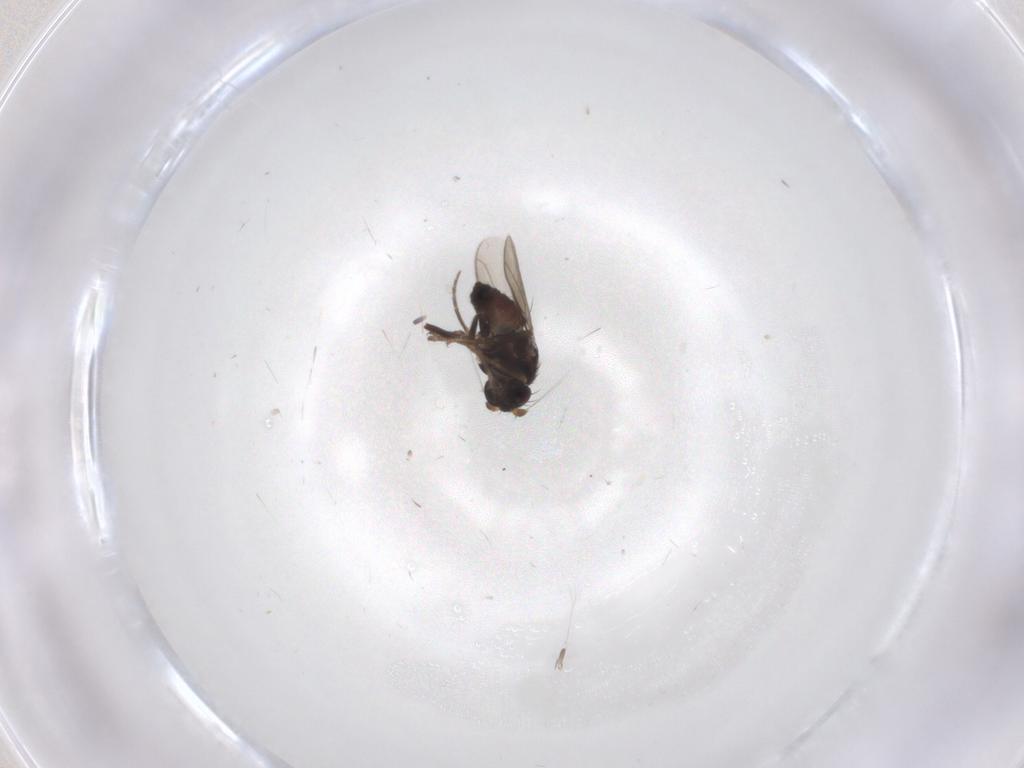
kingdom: Animalia
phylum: Arthropoda
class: Insecta
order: Diptera
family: Sphaeroceridae
